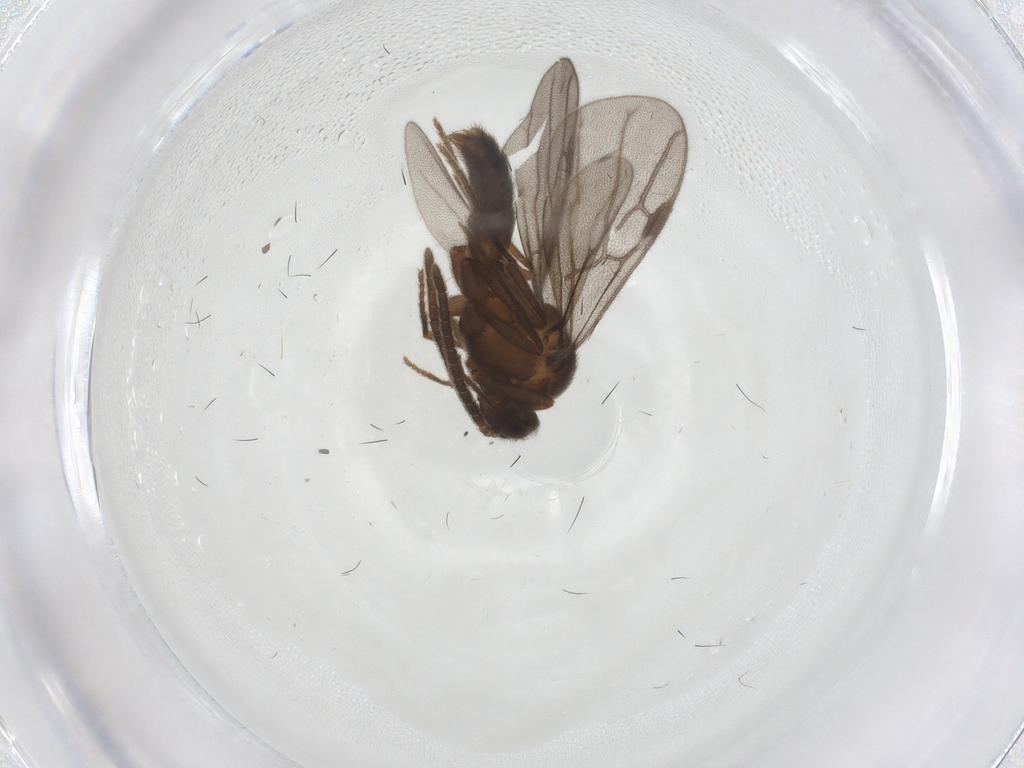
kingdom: Animalia
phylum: Arthropoda
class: Insecta
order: Hymenoptera
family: Formicidae
